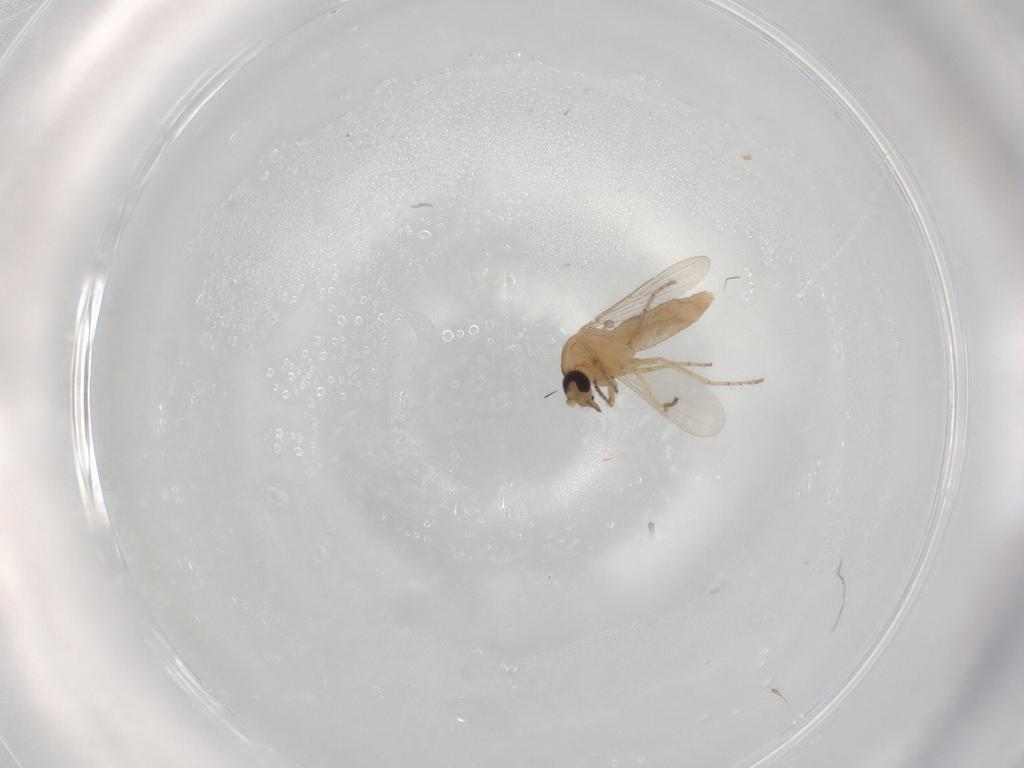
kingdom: Animalia
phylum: Arthropoda
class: Insecta
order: Diptera
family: Ceratopogonidae
